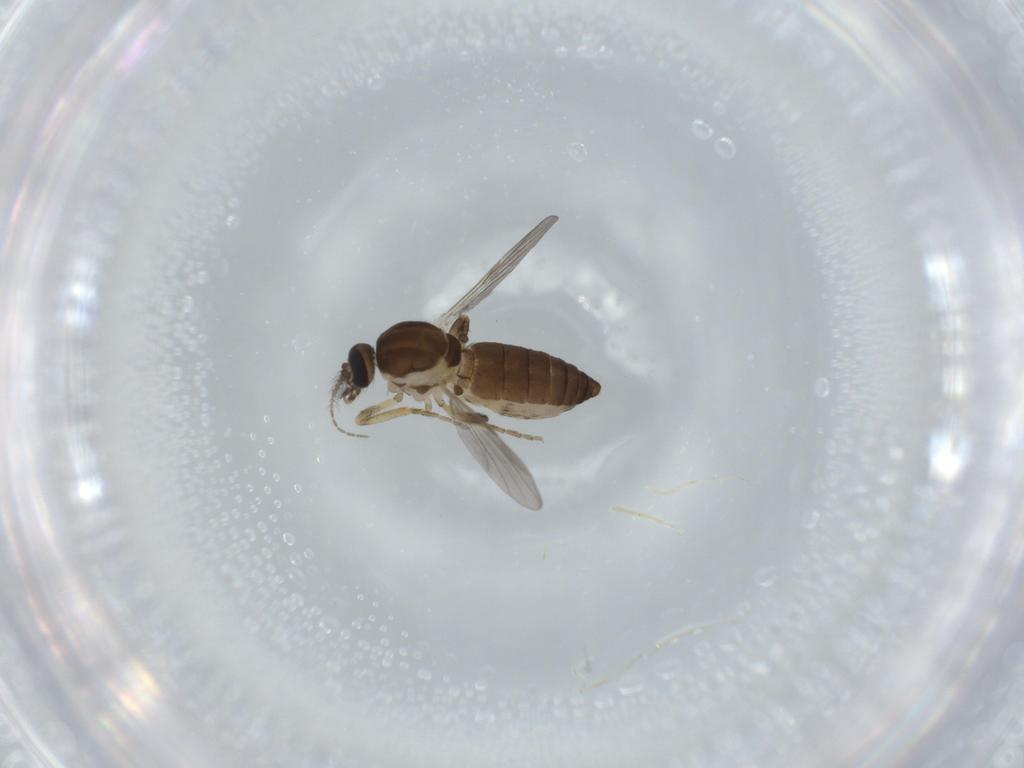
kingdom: Animalia
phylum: Arthropoda
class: Insecta
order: Diptera
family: Ceratopogonidae
